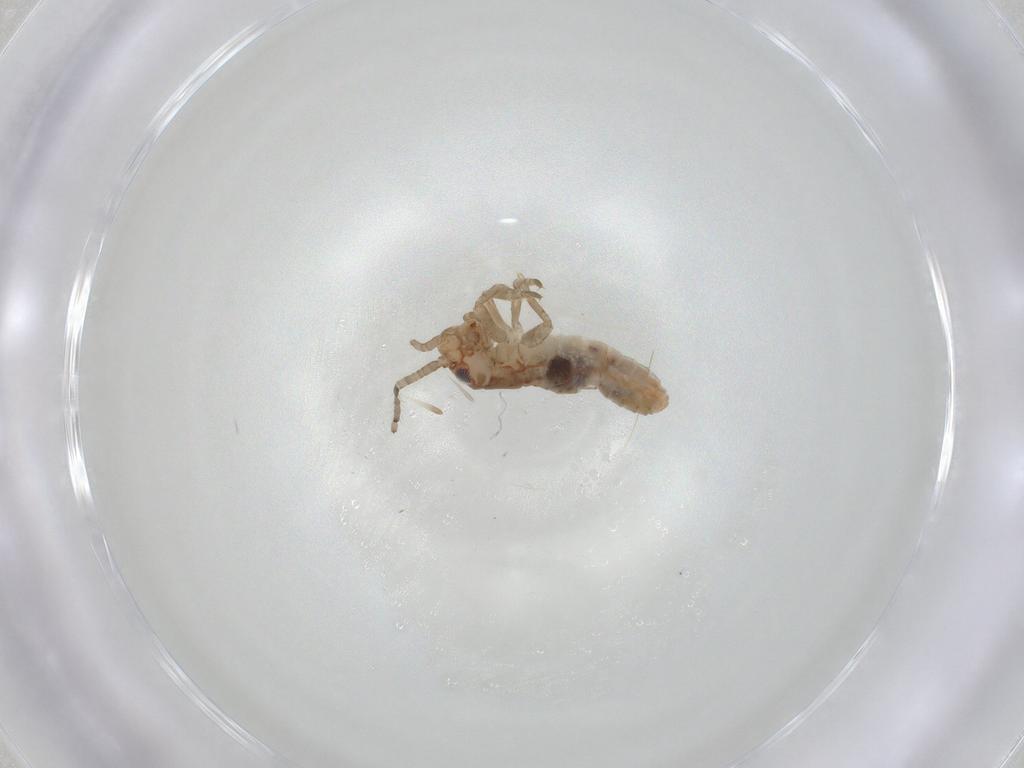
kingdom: Animalia
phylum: Arthropoda
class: Insecta
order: Orthoptera
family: Mogoplistidae
